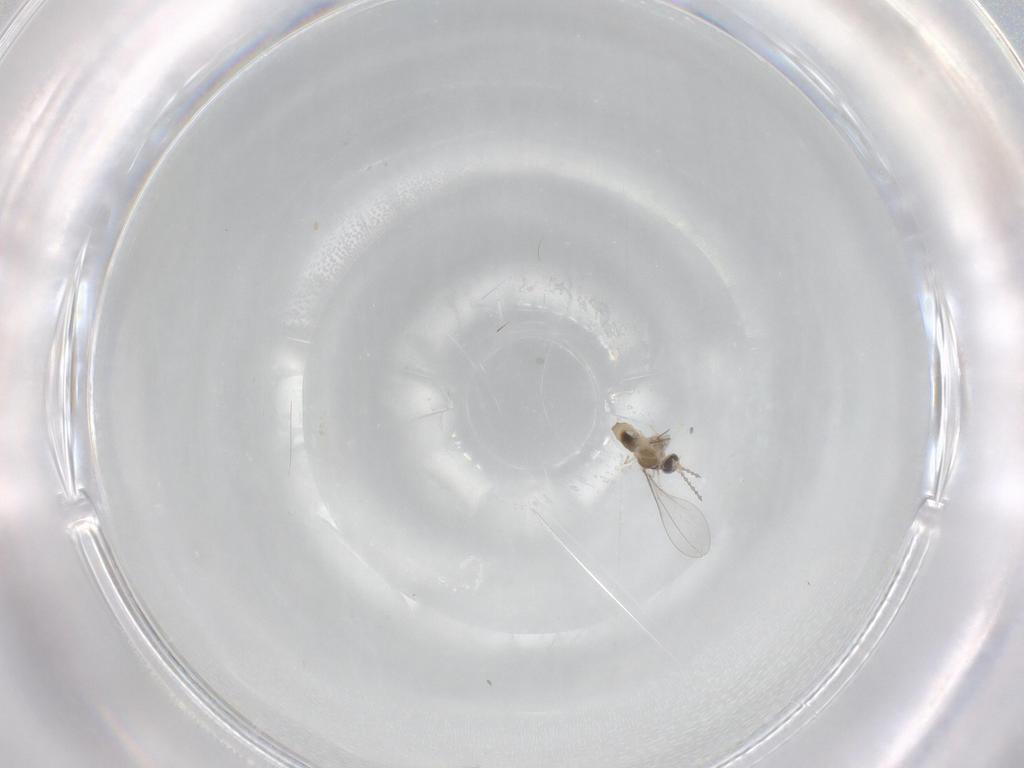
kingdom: Animalia
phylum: Arthropoda
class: Insecta
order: Diptera
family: Cecidomyiidae
